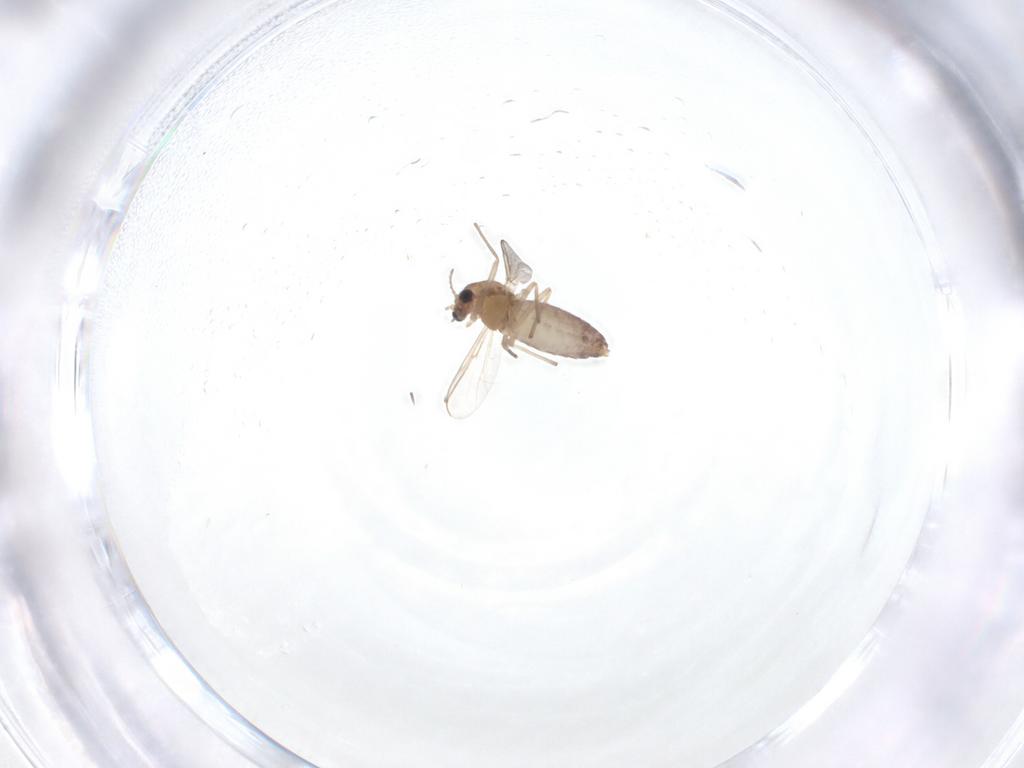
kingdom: Animalia
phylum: Arthropoda
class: Insecta
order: Diptera
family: Chironomidae
